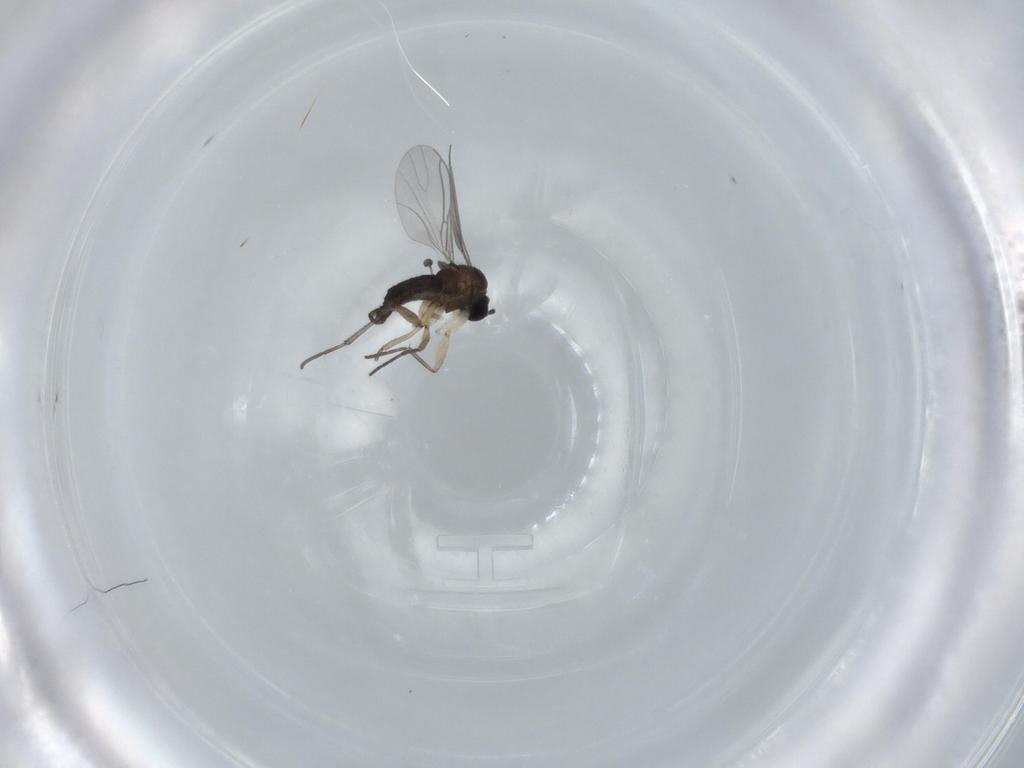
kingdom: Animalia
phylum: Arthropoda
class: Insecta
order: Diptera
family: Sciaridae
